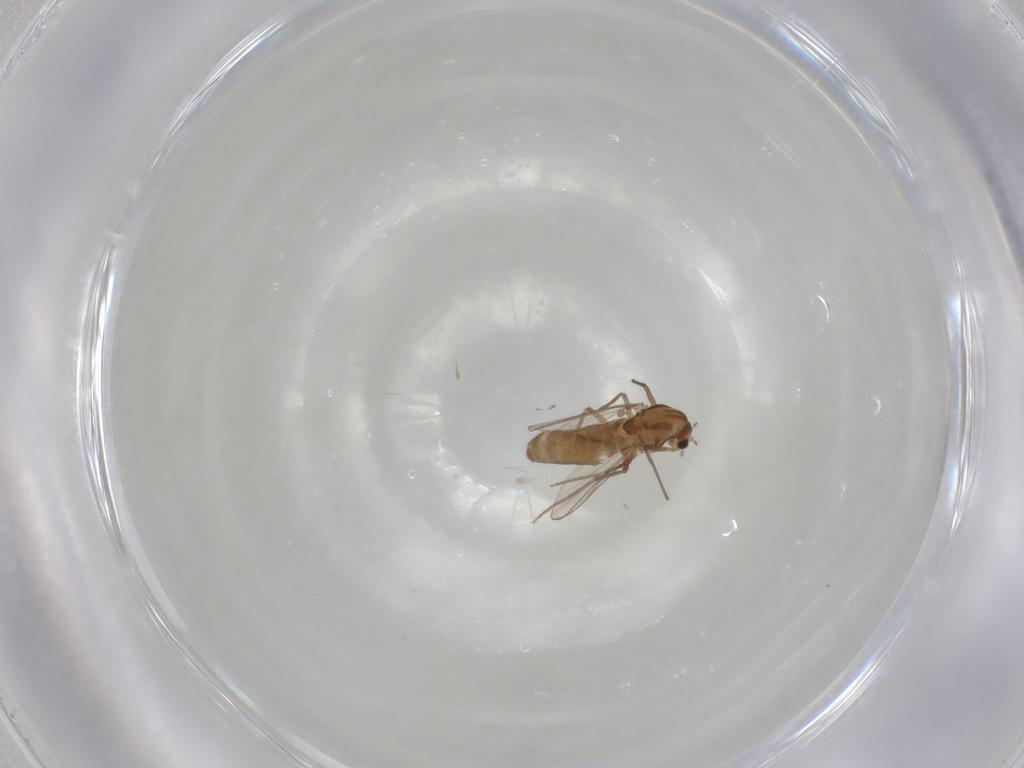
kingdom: Animalia
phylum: Arthropoda
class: Insecta
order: Diptera
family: Chironomidae
